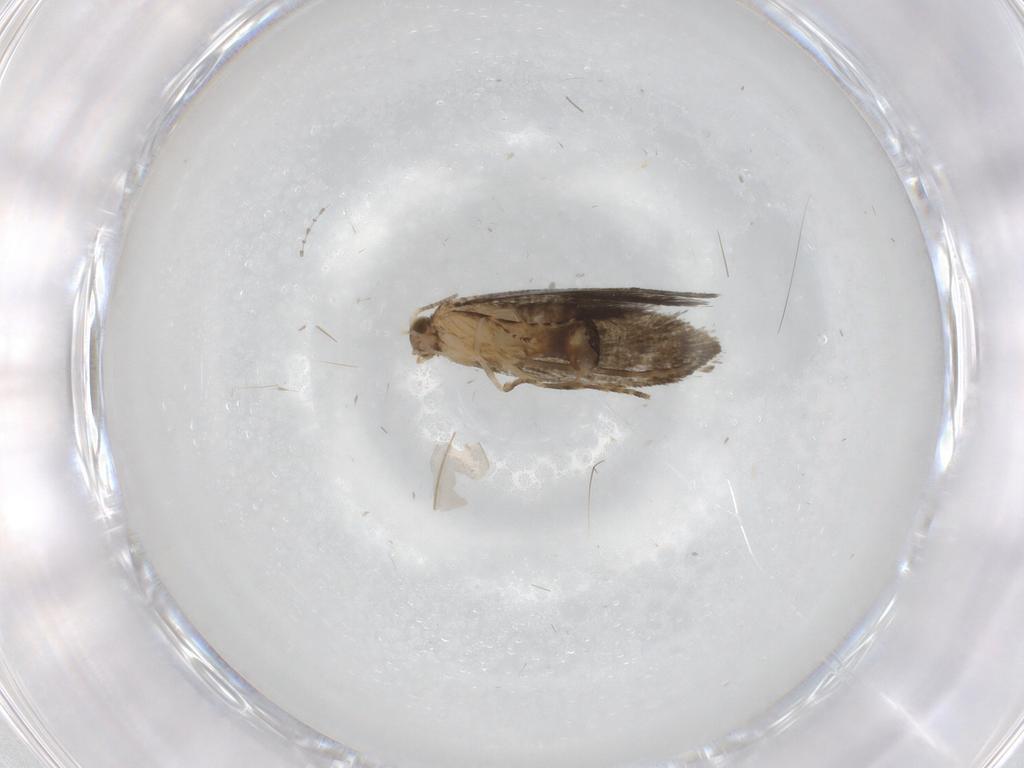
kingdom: Animalia
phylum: Arthropoda
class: Insecta
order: Lepidoptera
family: Tineidae
